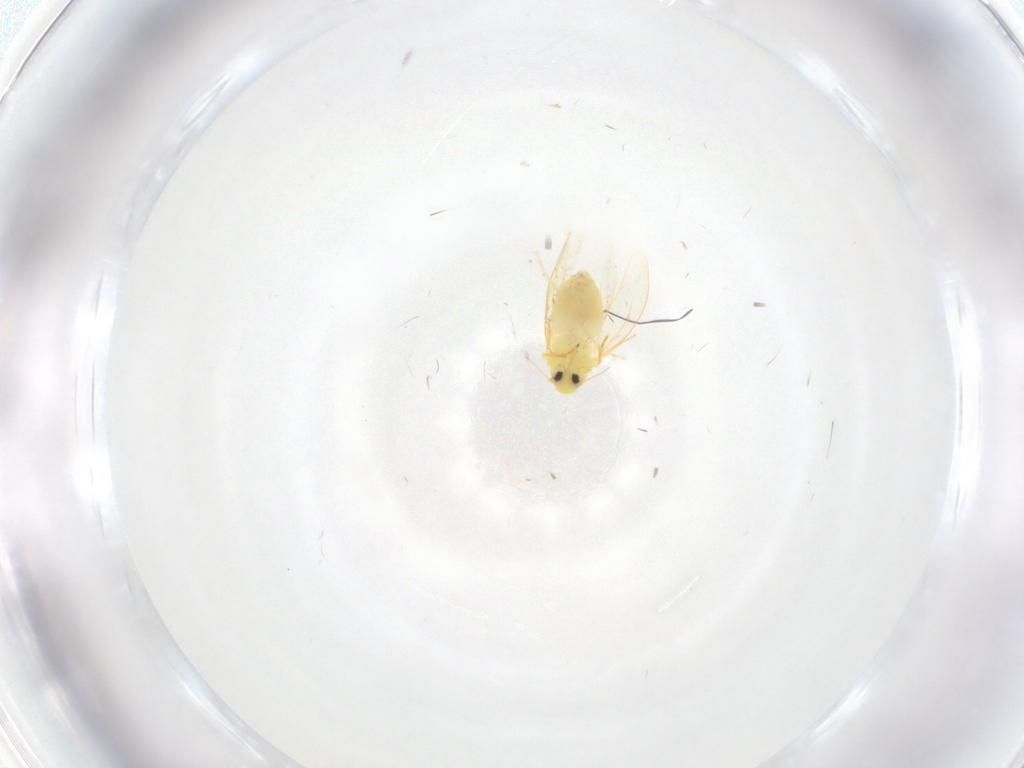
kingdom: Animalia
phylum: Arthropoda
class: Insecta
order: Hemiptera
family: Aleyrodidae
